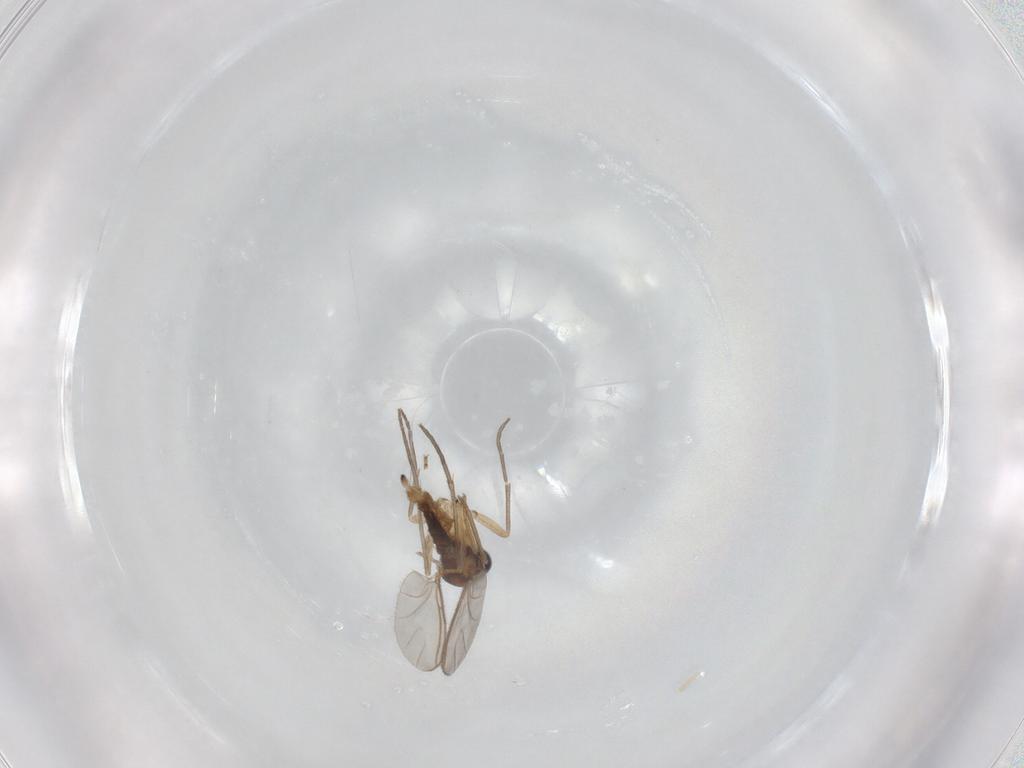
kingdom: Animalia
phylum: Arthropoda
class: Insecta
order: Diptera
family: Sciaridae
